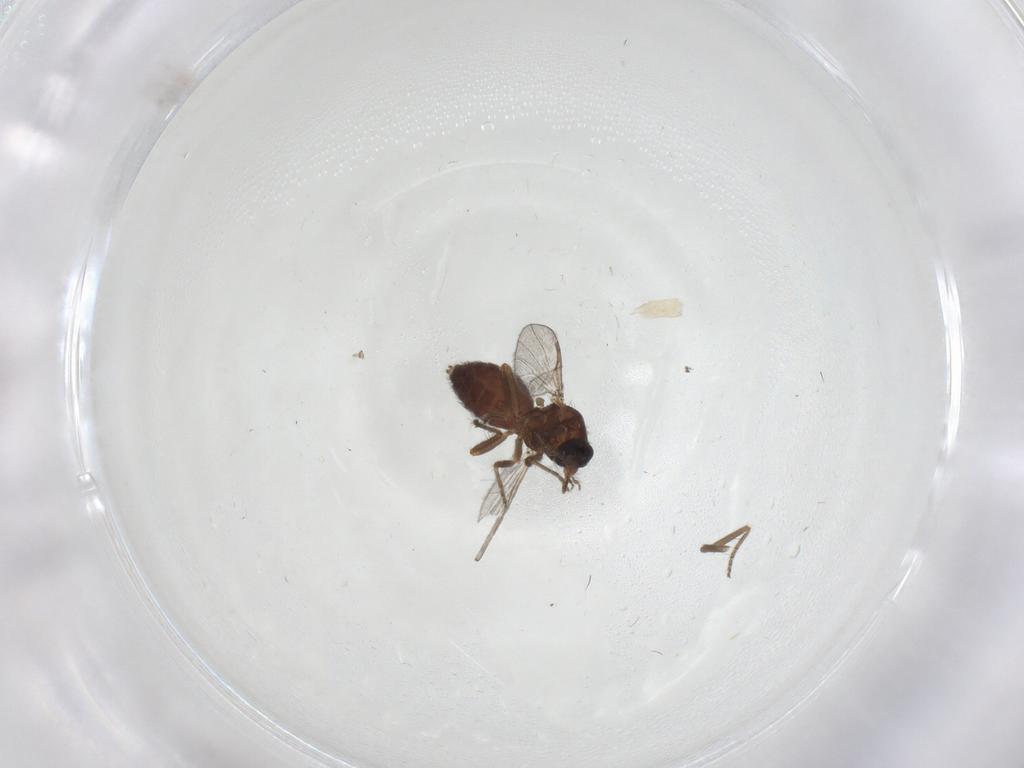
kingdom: Animalia
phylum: Arthropoda
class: Insecta
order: Diptera
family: Ceratopogonidae
